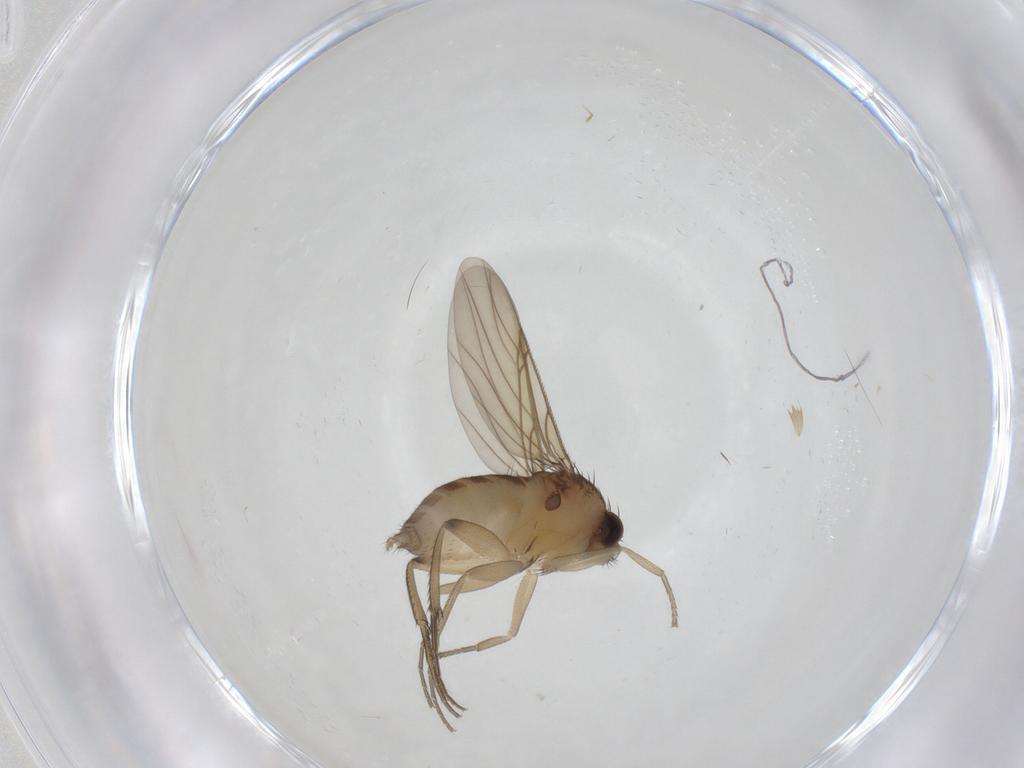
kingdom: Animalia
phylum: Arthropoda
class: Insecta
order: Diptera
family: Phoridae
